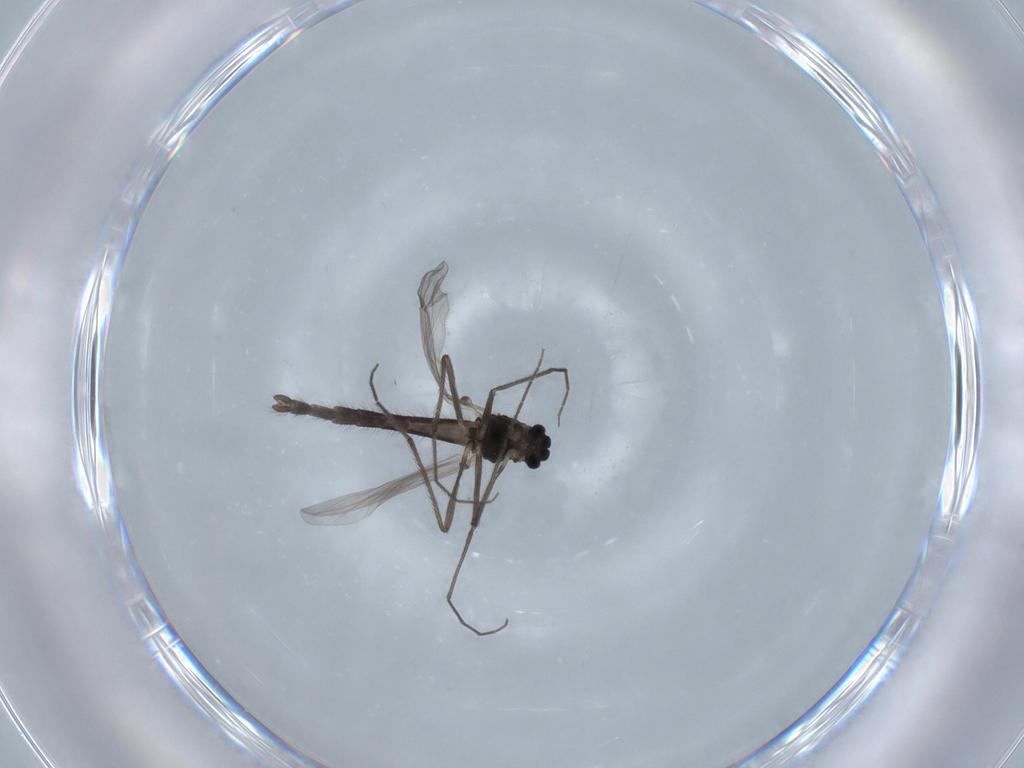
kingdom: Animalia
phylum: Arthropoda
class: Insecta
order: Diptera
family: Chironomidae
